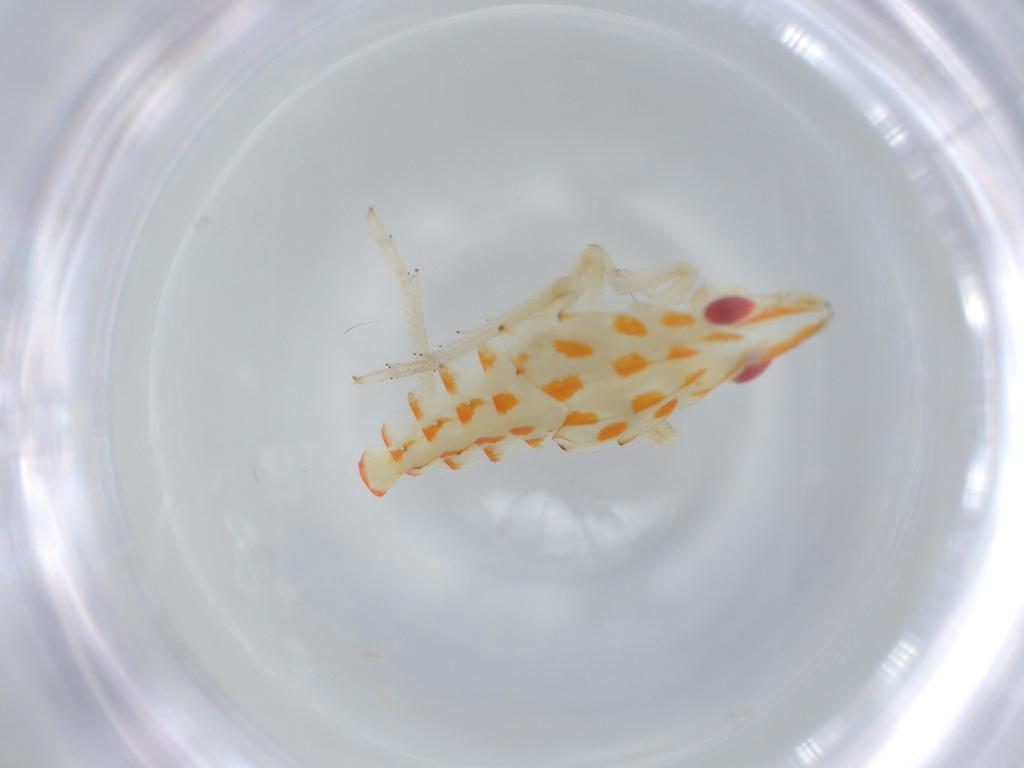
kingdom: Animalia
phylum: Arthropoda
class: Insecta
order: Hemiptera
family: Tropiduchidae
